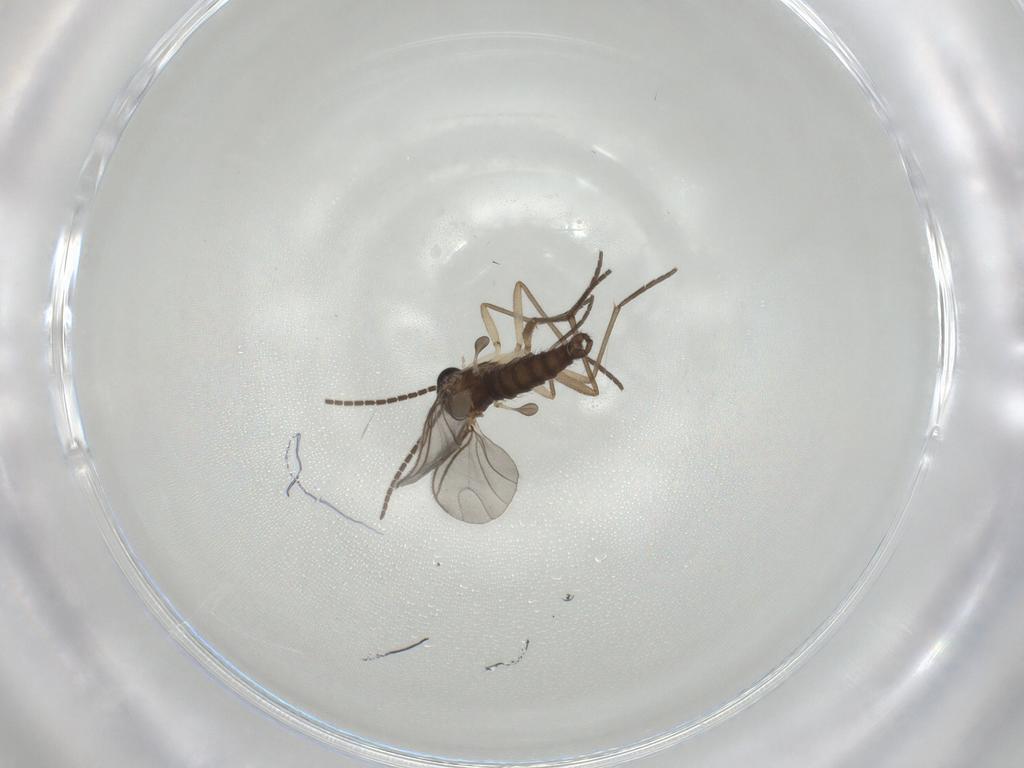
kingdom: Animalia
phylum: Arthropoda
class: Insecta
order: Diptera
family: Sciaridae
